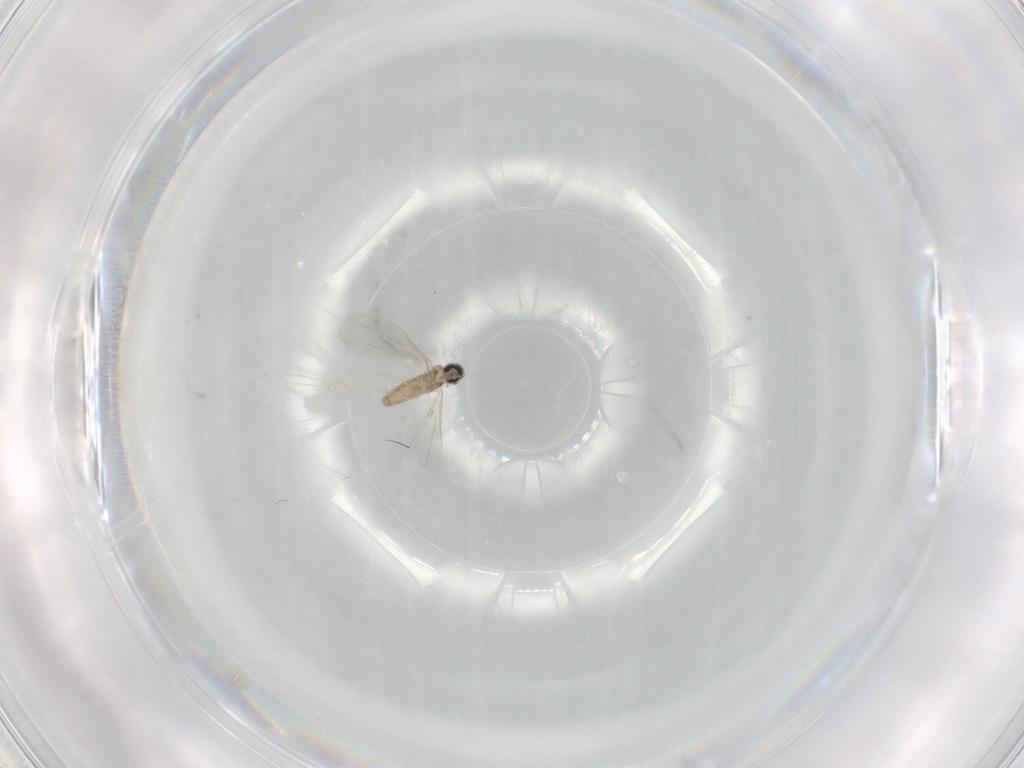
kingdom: Animalia
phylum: Arthropoda
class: Insecta
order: Diptera
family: Cecidomyiidae
